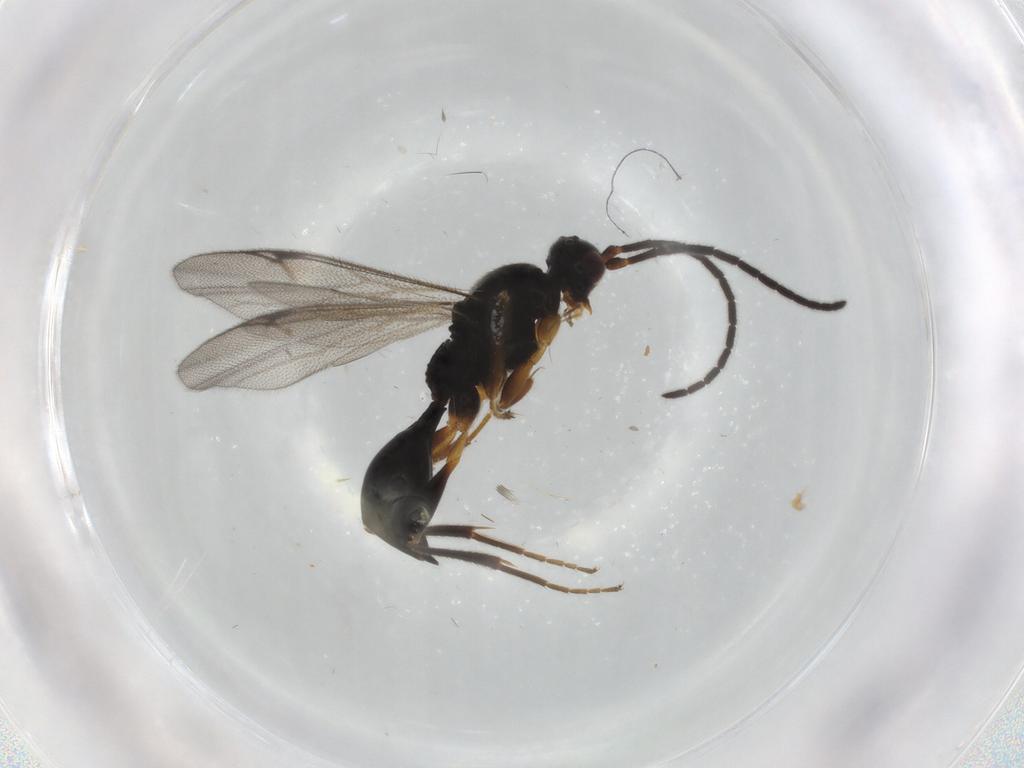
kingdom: Animalia
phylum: Arthropoda
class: Insecta
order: Hymenoptera
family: Proctotrupidae
